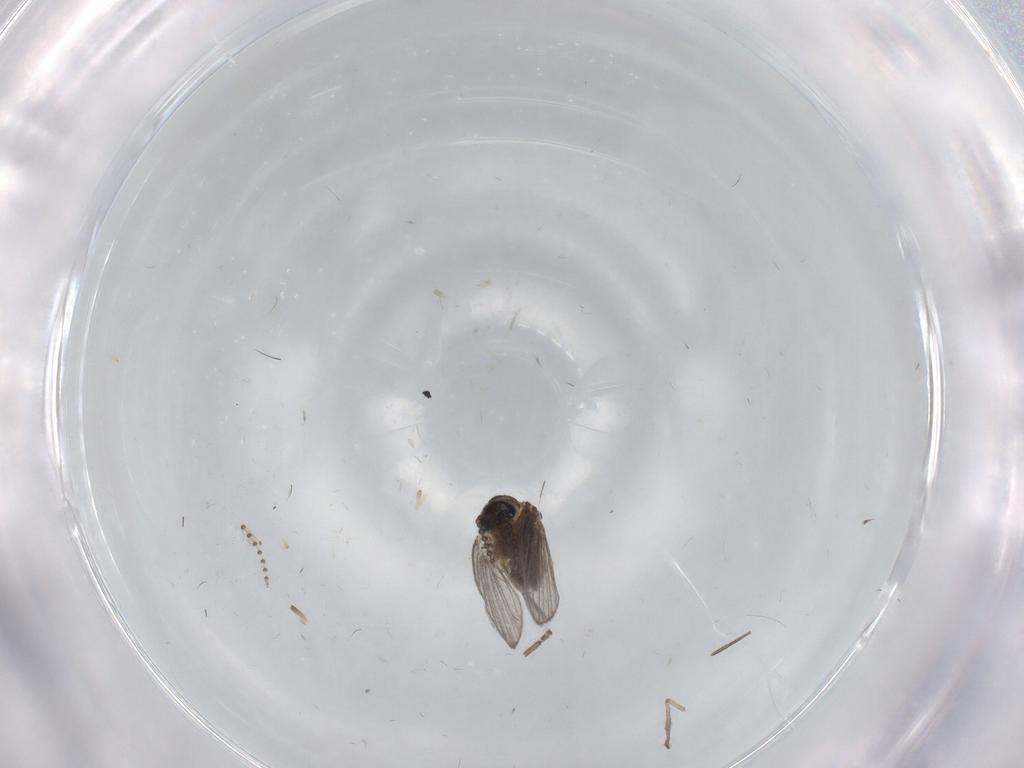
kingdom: Animalia
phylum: Arthropoda
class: Insecta
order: Diptera
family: Psychodidae
